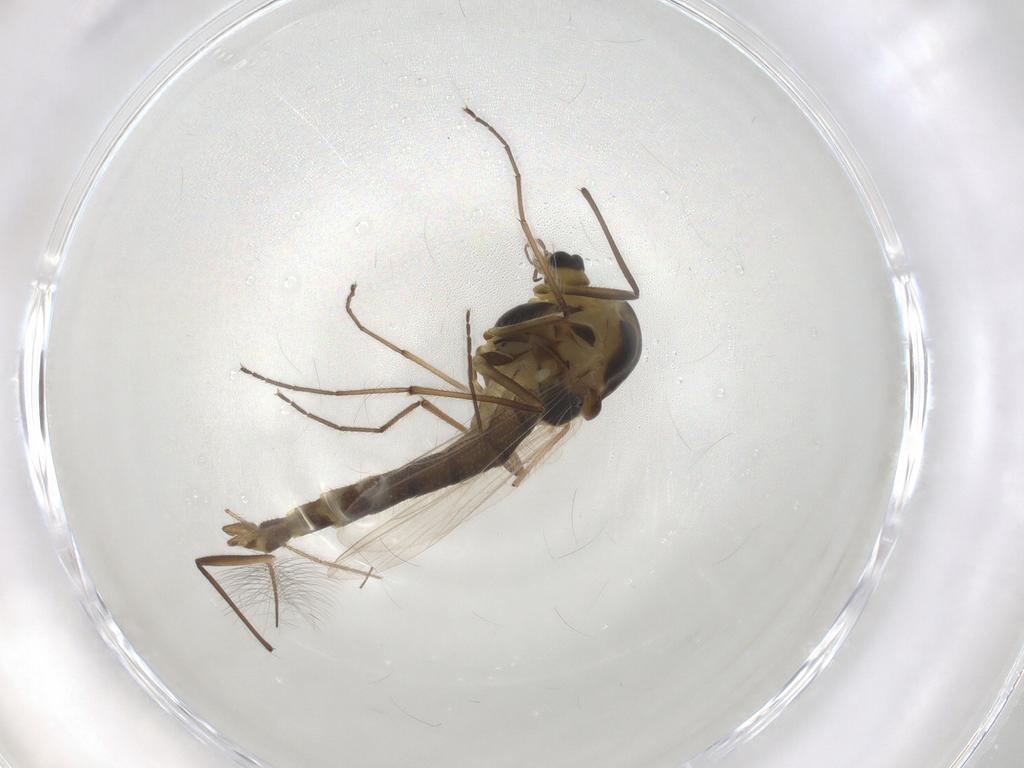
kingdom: Animalia
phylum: Arthropoda
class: Insecta
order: Diptera
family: Chironomidae
